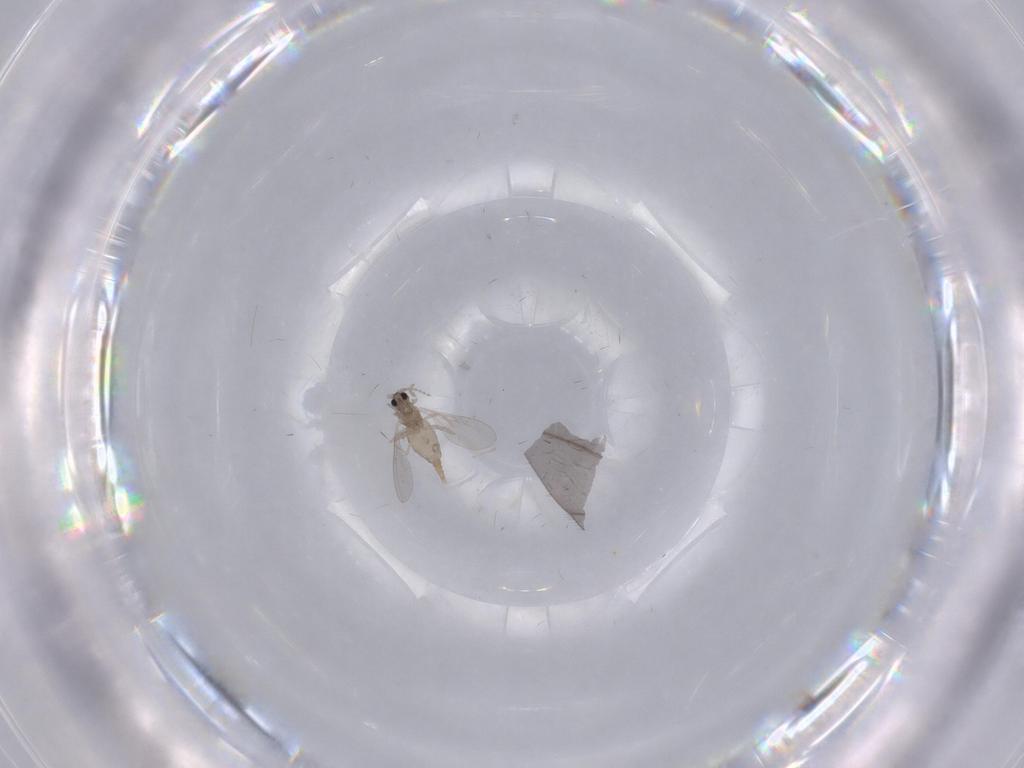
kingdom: Animalia
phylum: Arthropoda
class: Insecta
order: Diptera
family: Cecidomyiidae
